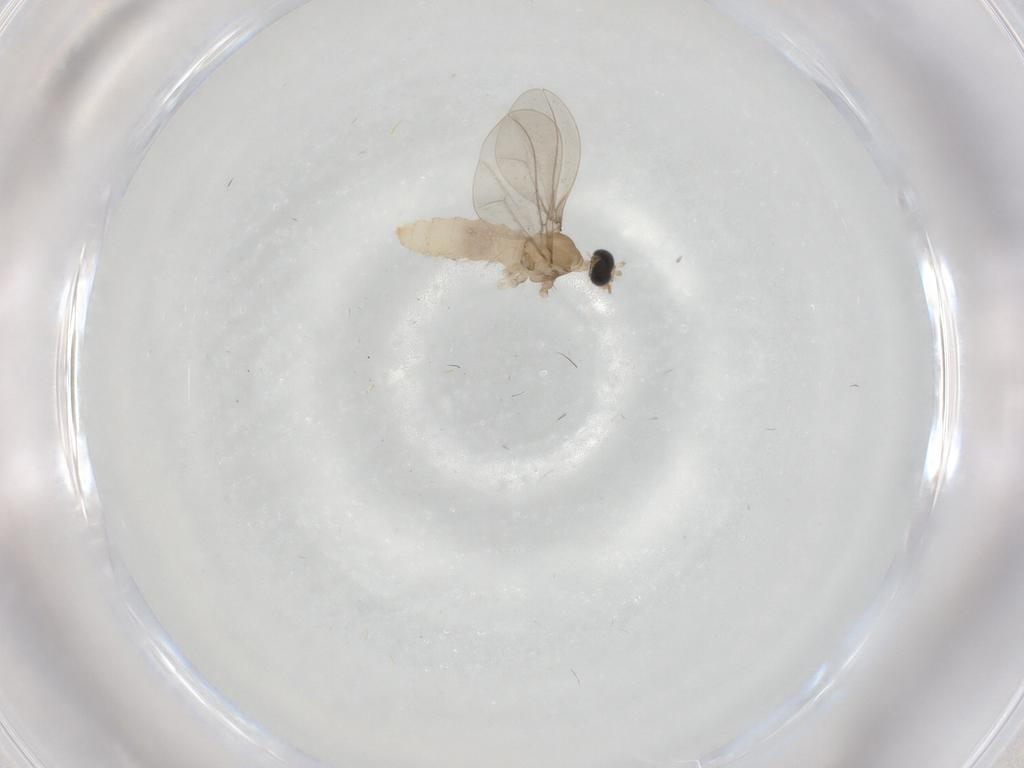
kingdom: Animalia
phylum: Arthropoda
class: Insecta
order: Diptera
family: Cecidomyiidae
